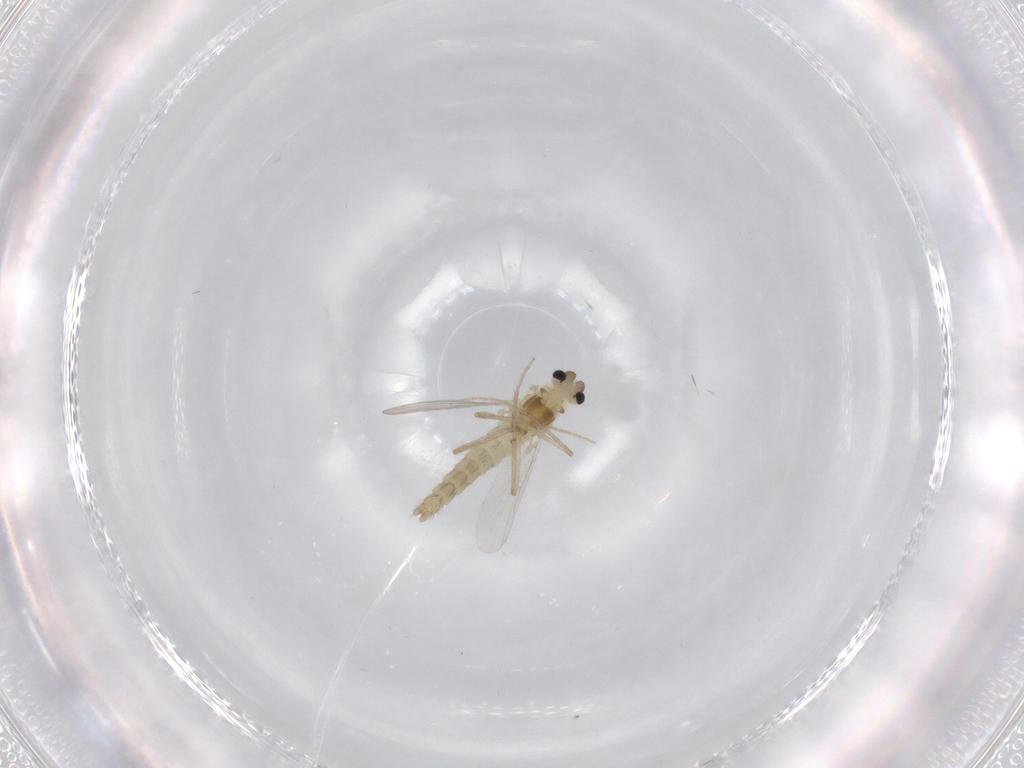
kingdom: Animalia
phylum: Arthropoda
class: Insecta
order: Diptera
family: Chironomidae
